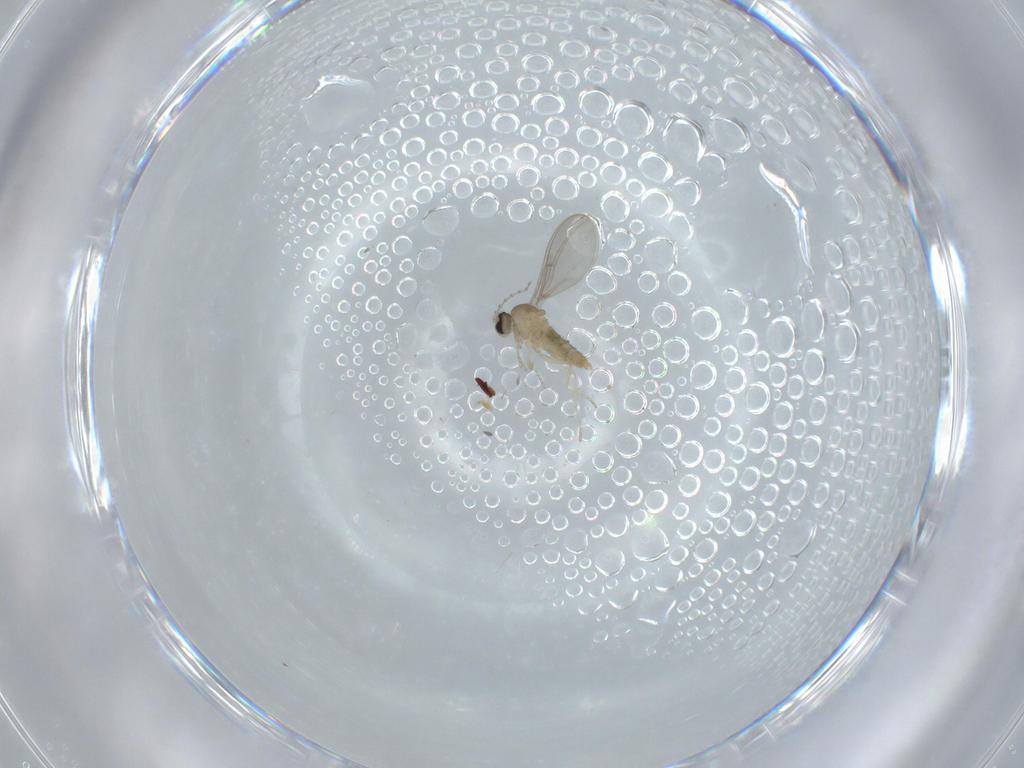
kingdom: Animalia
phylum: Arthropoda
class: Insecta
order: Diptera
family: Cecidomyiidae
